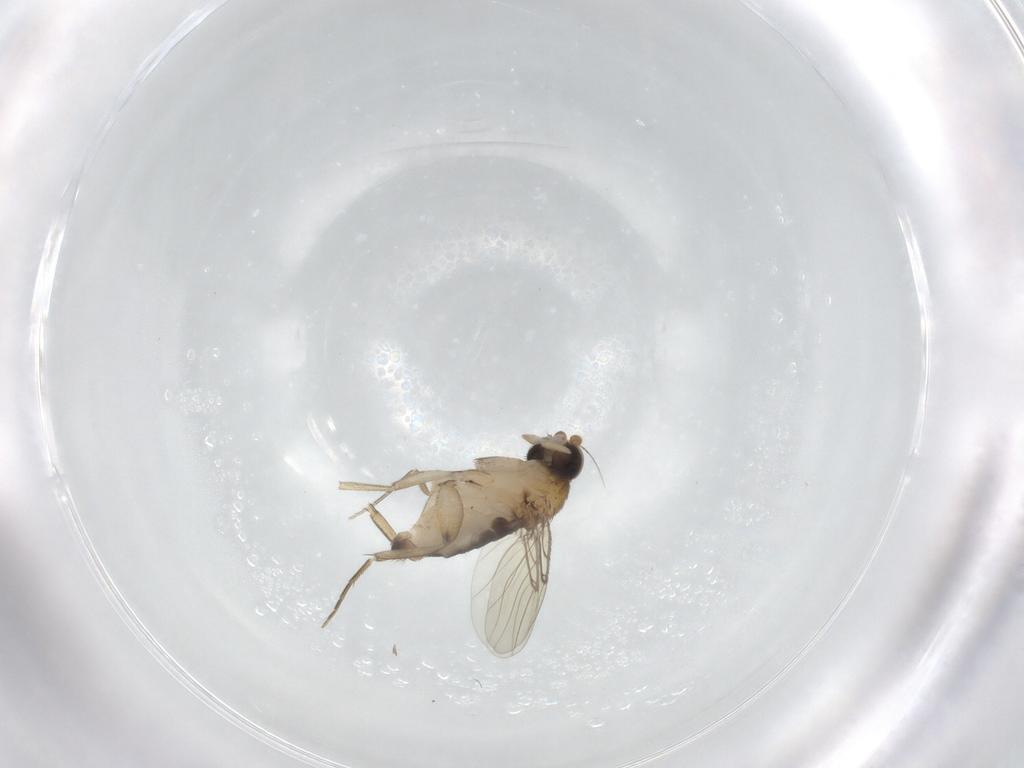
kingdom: Animalia
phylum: Arthropoda
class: Insecta
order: Diptera
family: Phoridae
